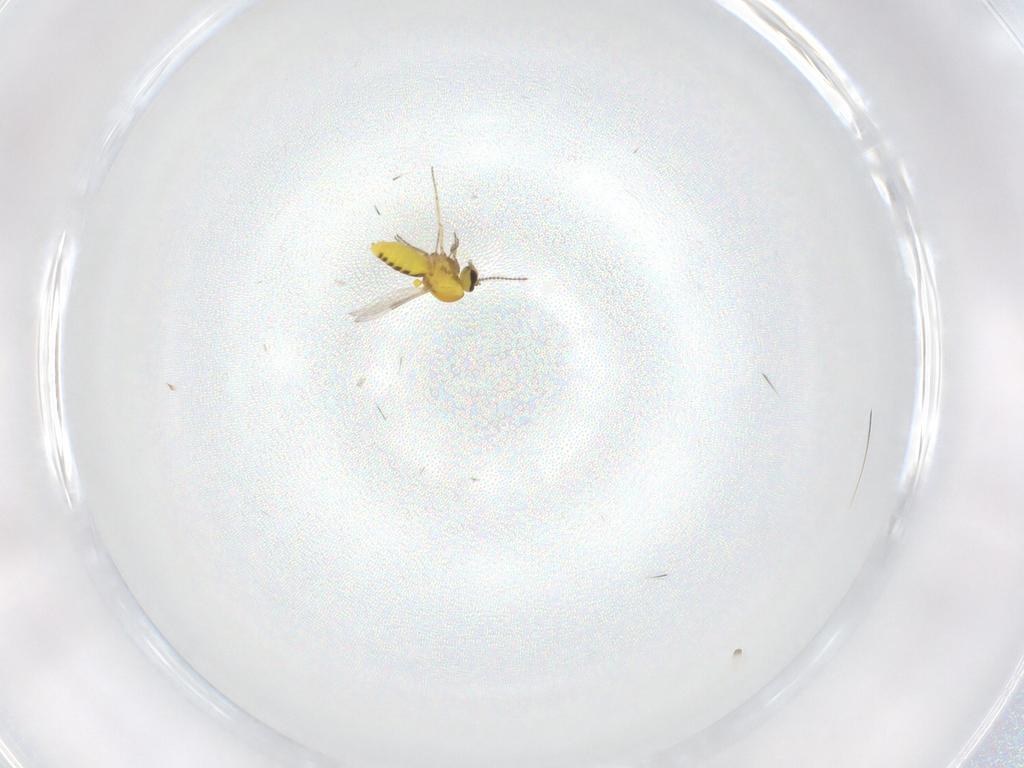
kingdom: Animalia
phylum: Arthropoda
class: Insecta
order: Diptera
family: Ceratopogonidae
